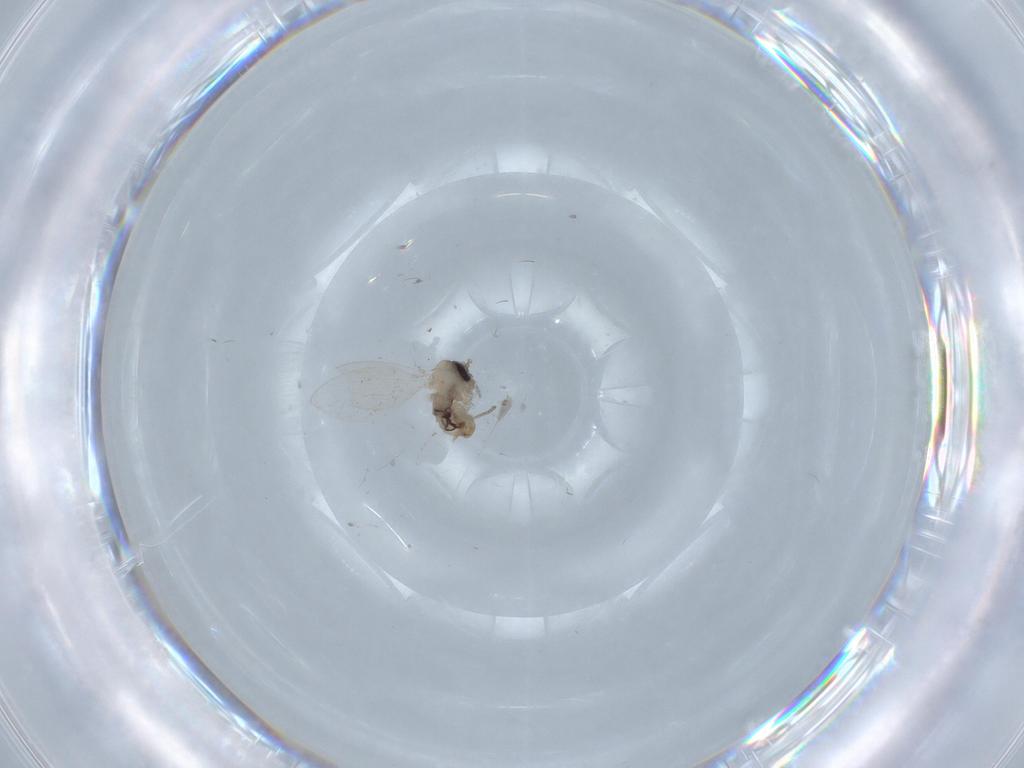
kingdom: Animalia
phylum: Arthropoda
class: Insecta
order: Diptera
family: Psychodidae
